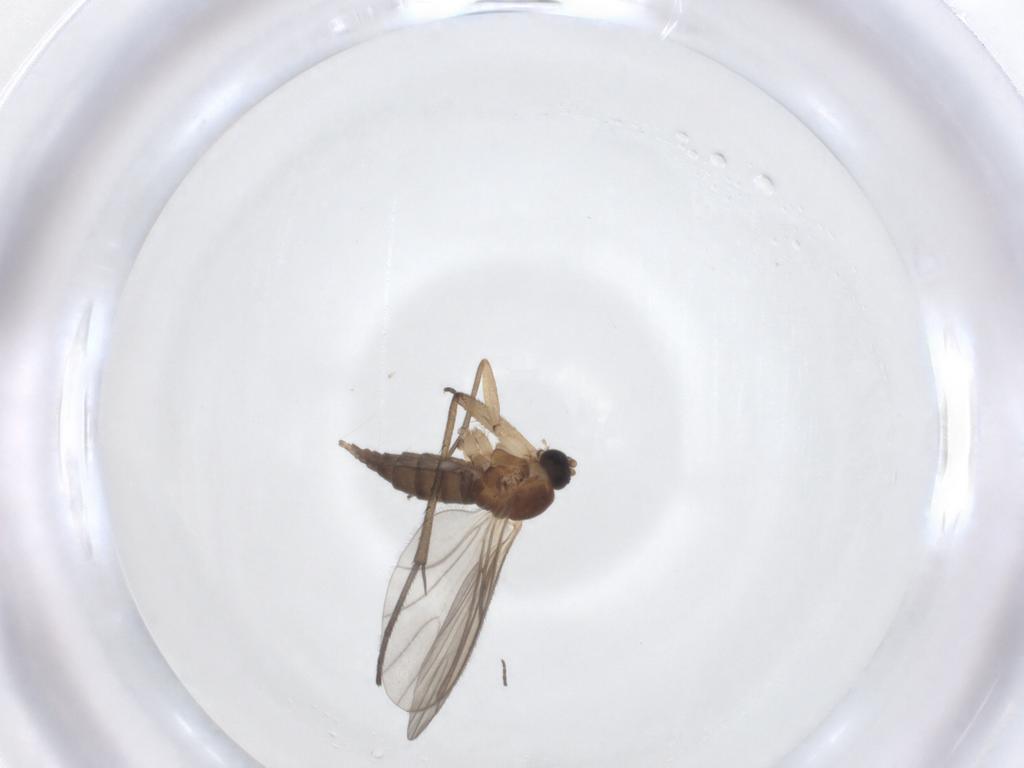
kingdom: Animalia
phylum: Arthropoda
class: Insecta
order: Diptera
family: Sciaridae
